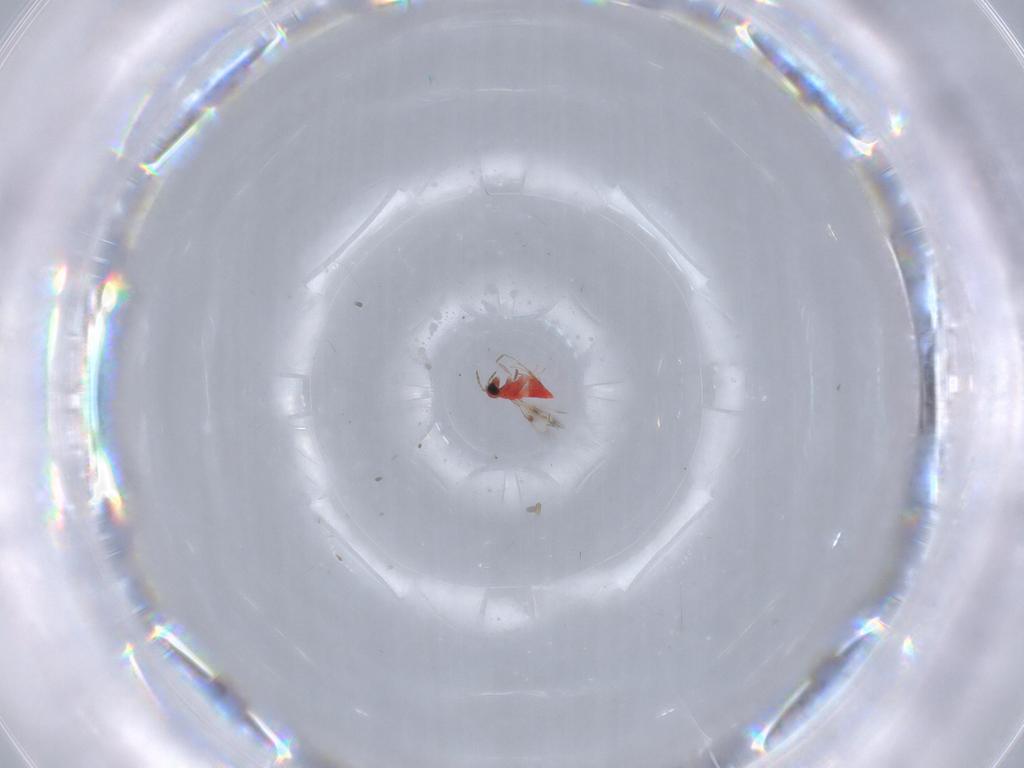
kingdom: Animalia
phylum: Arthropoda
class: Insecta
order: Hymenoptera
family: Trichogrammatidae
